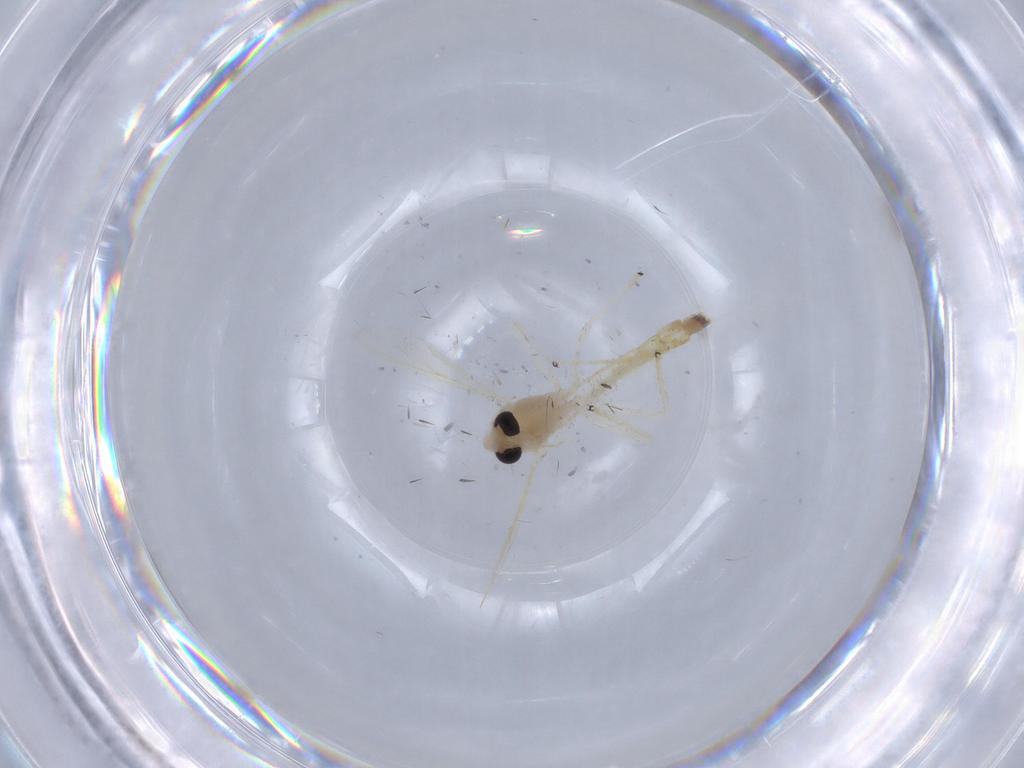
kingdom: Animalia
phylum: Arthropoda
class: Insecta
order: Diptera
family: Chironomidae
